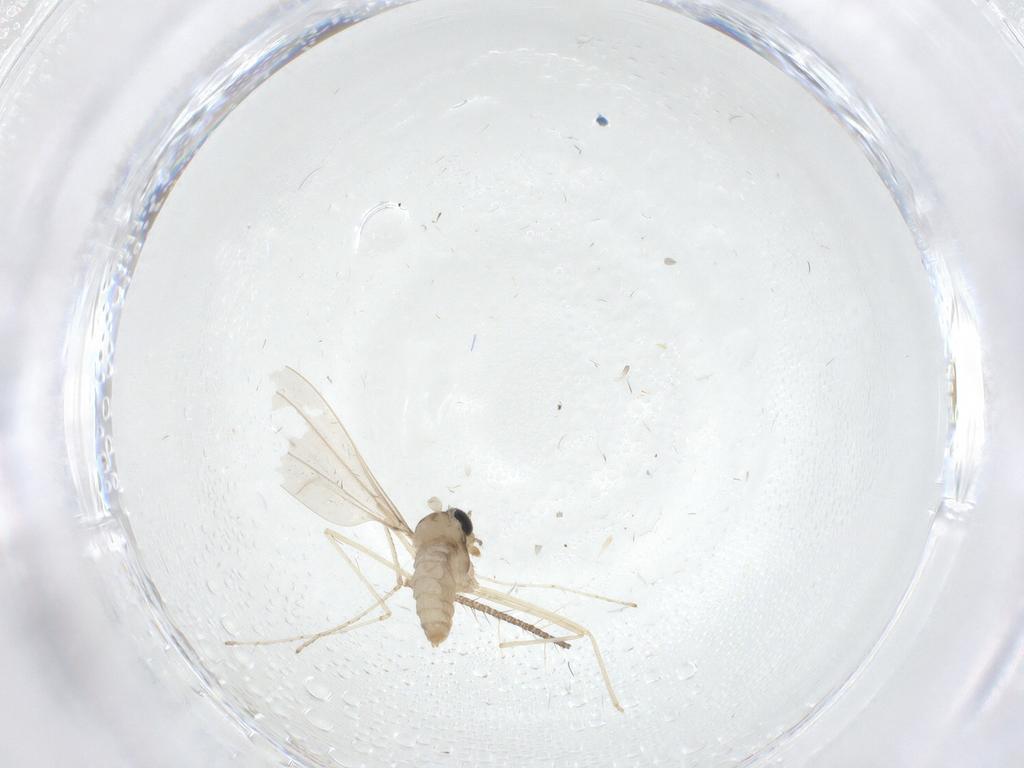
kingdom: Animalia
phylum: Arthropoda
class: Insecta
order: Diptera
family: Cecidomyiidae
